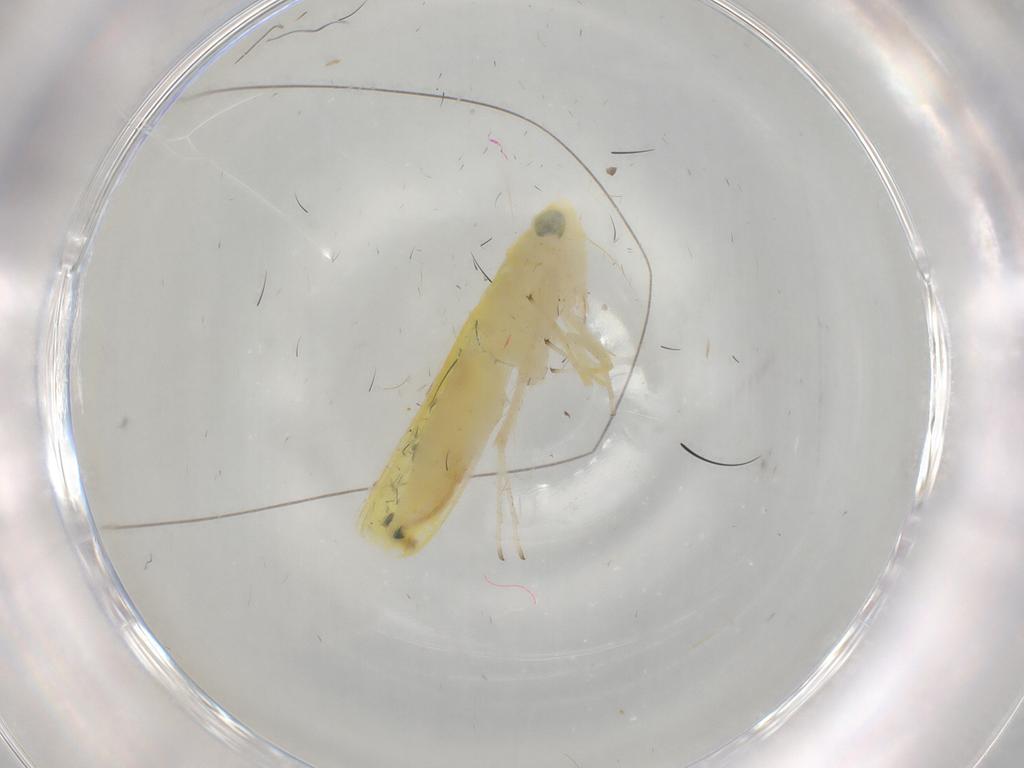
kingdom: Animalia
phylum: Arthropoda
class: Insecta
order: Hemiptera
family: Cicadellidae
